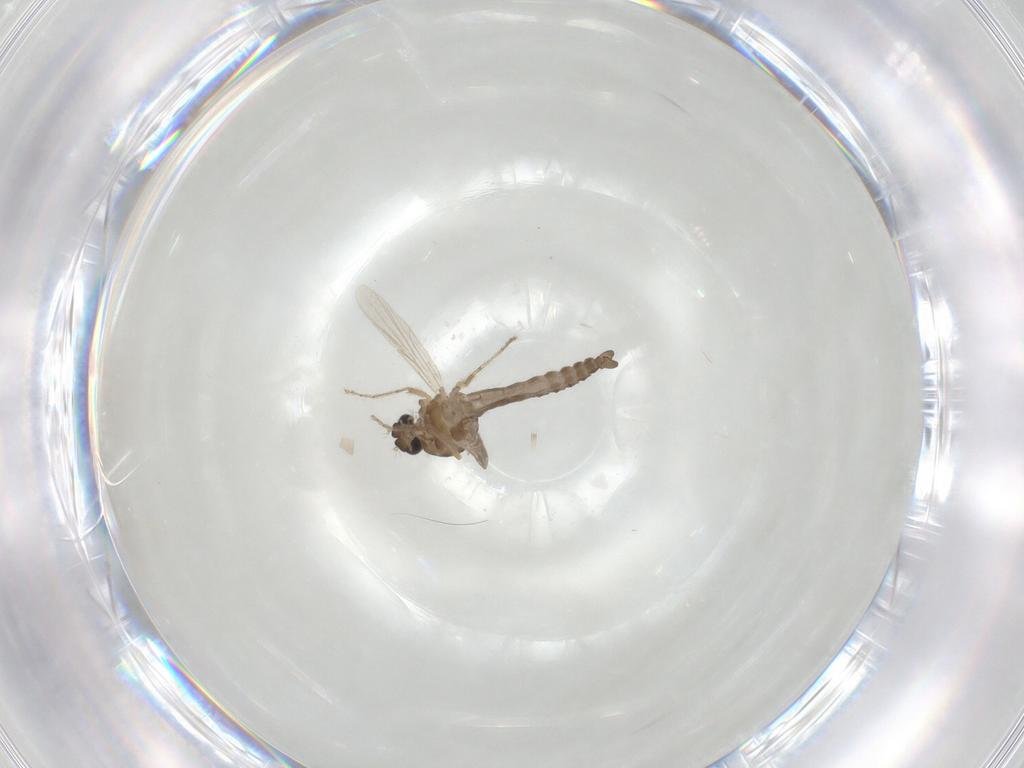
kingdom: Animalia
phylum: Arthropoda
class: Insecta
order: Diptera
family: Ceratopogonidae
